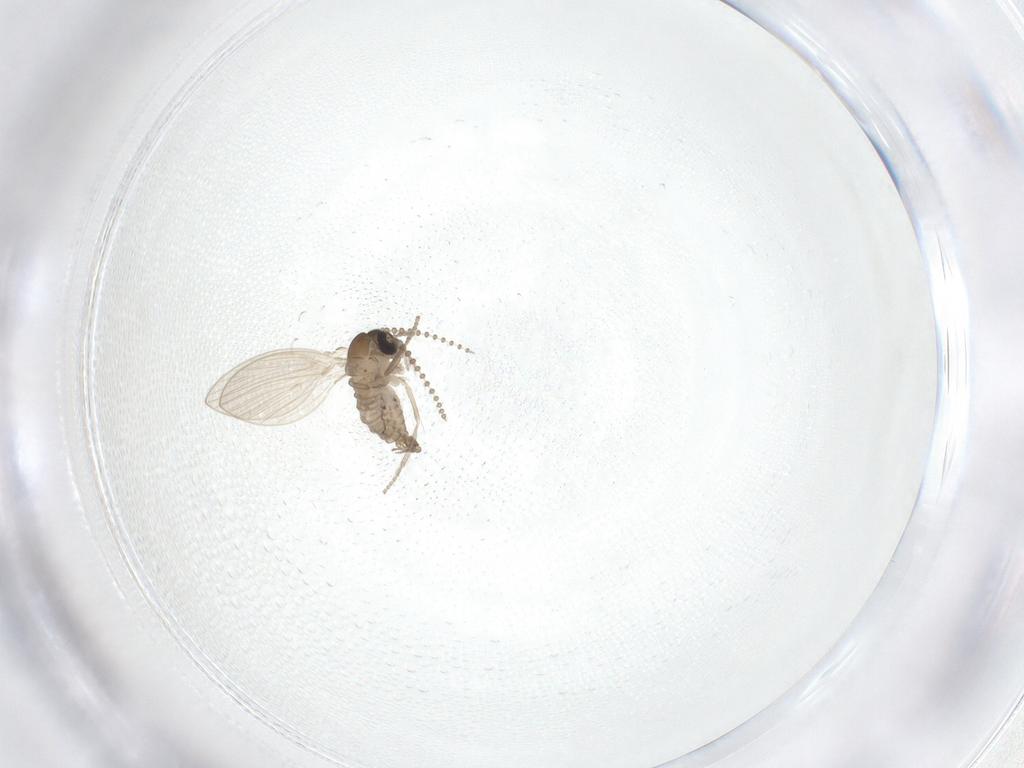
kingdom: Animalia
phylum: Arthropoda
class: Insecta
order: Diptera
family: Psychodidae
